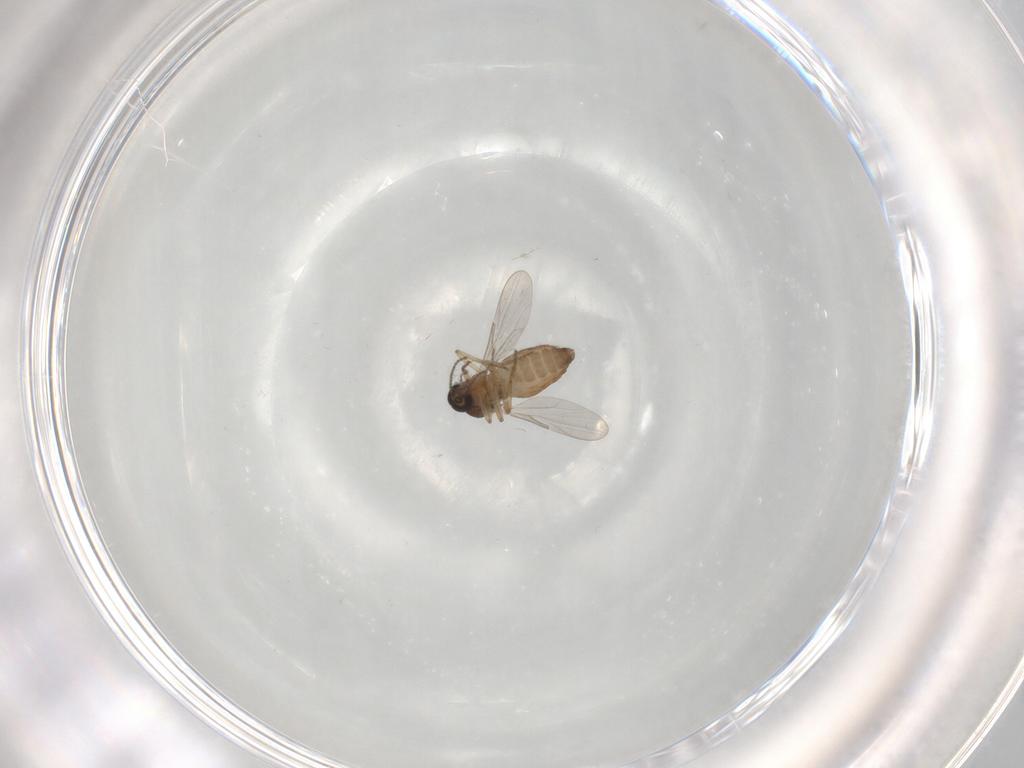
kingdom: Animalia
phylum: Arthropoda
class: Insecta
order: Diptera
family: Ceratopogonidae
